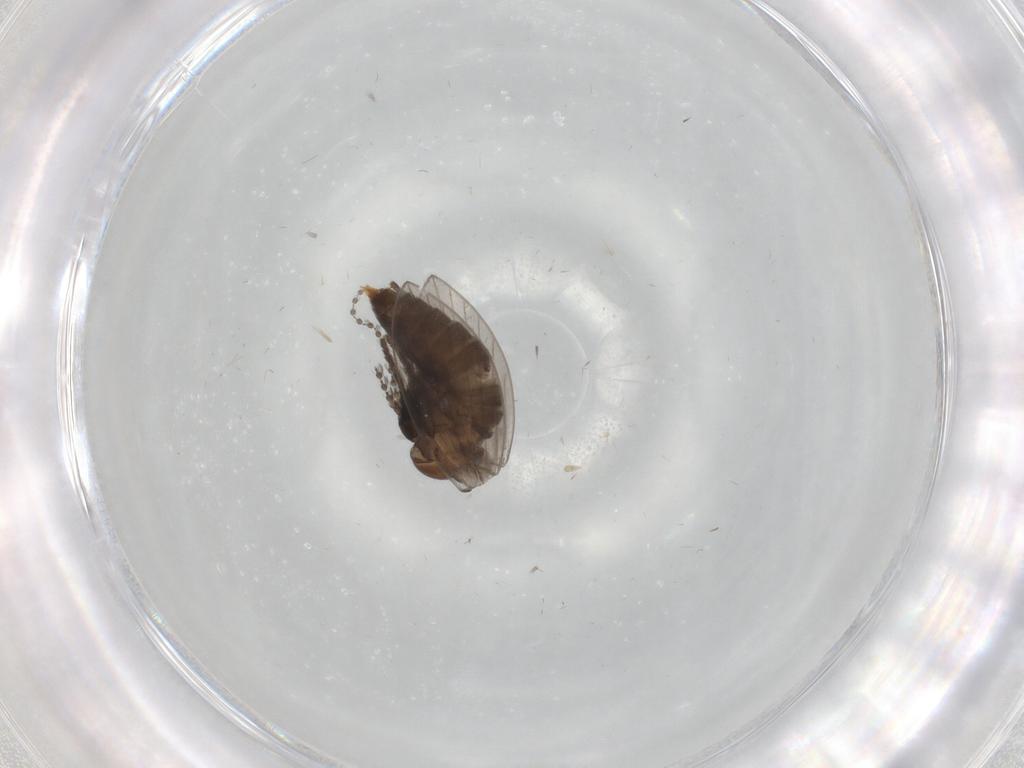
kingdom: Animalia
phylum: Arthropoda
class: Insecta
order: Diptera
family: Psychodidae
